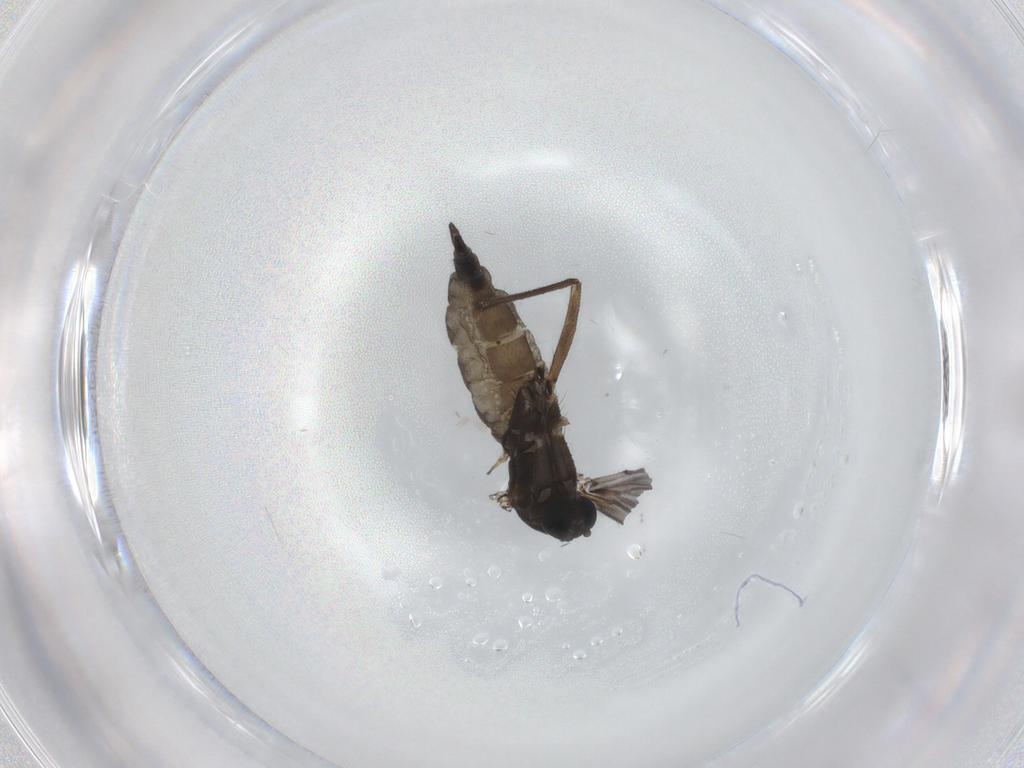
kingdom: Animalia
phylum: Arthropoda
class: Insecta
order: Diptera
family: Sciaridae
